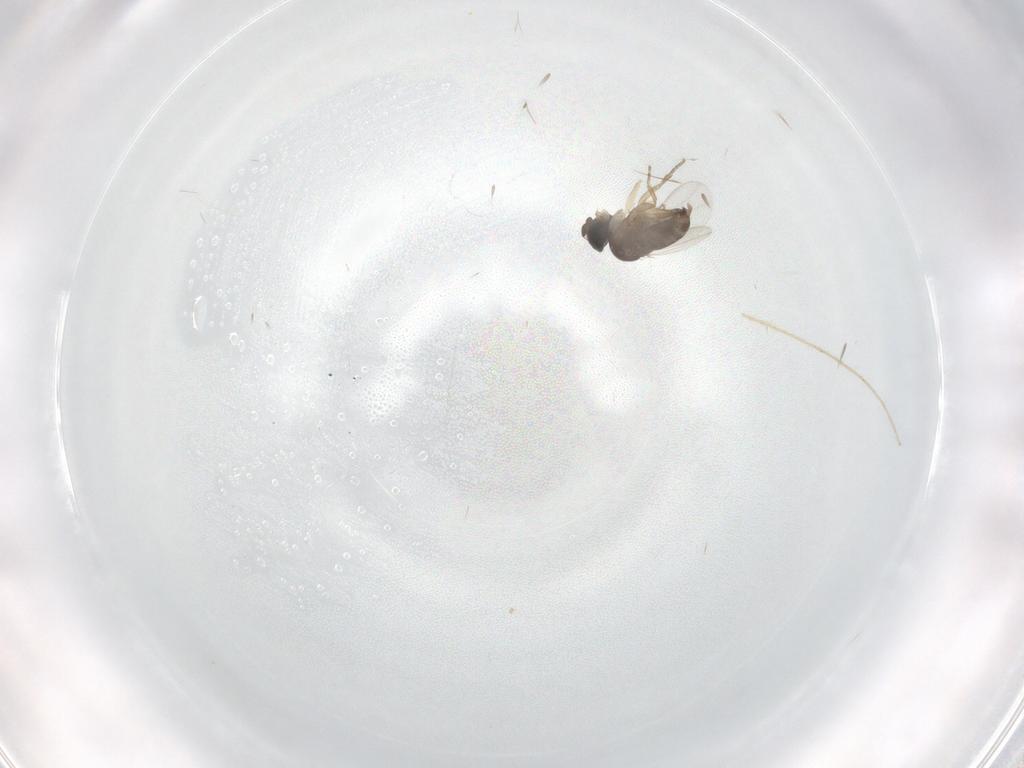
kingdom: Animalia
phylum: Arthropoda
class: Insecta
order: Diptera
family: Phoridae
